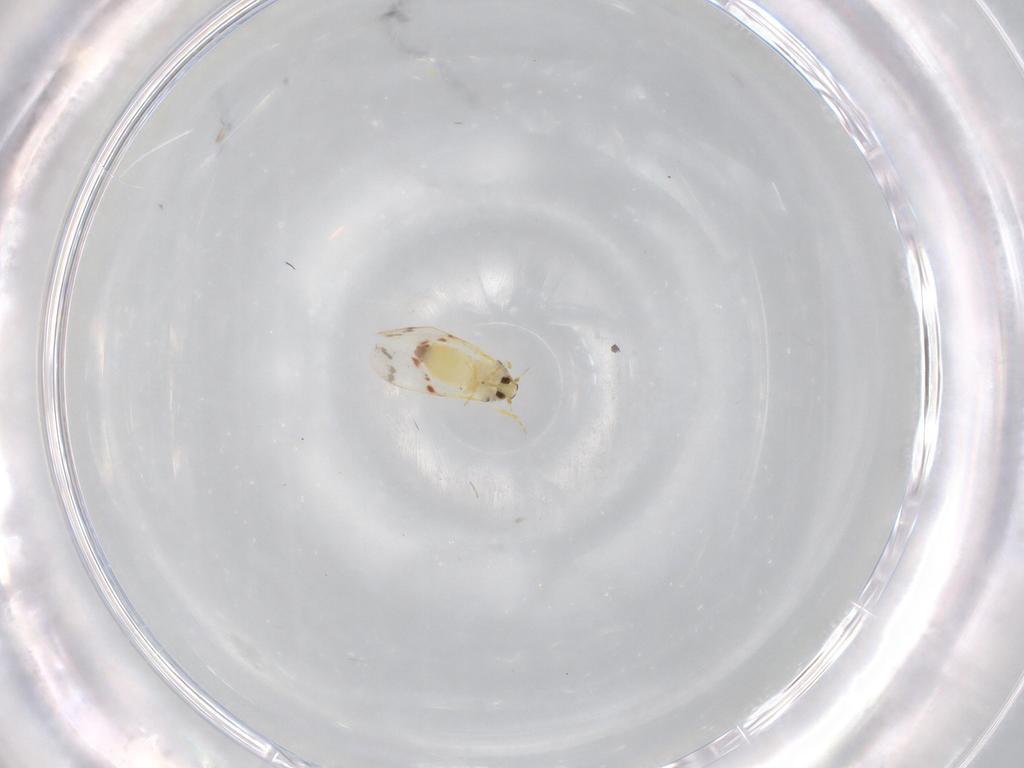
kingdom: Animalia
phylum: Arthropoda
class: Insecta
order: Hemiptera
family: Aleyrodidae
